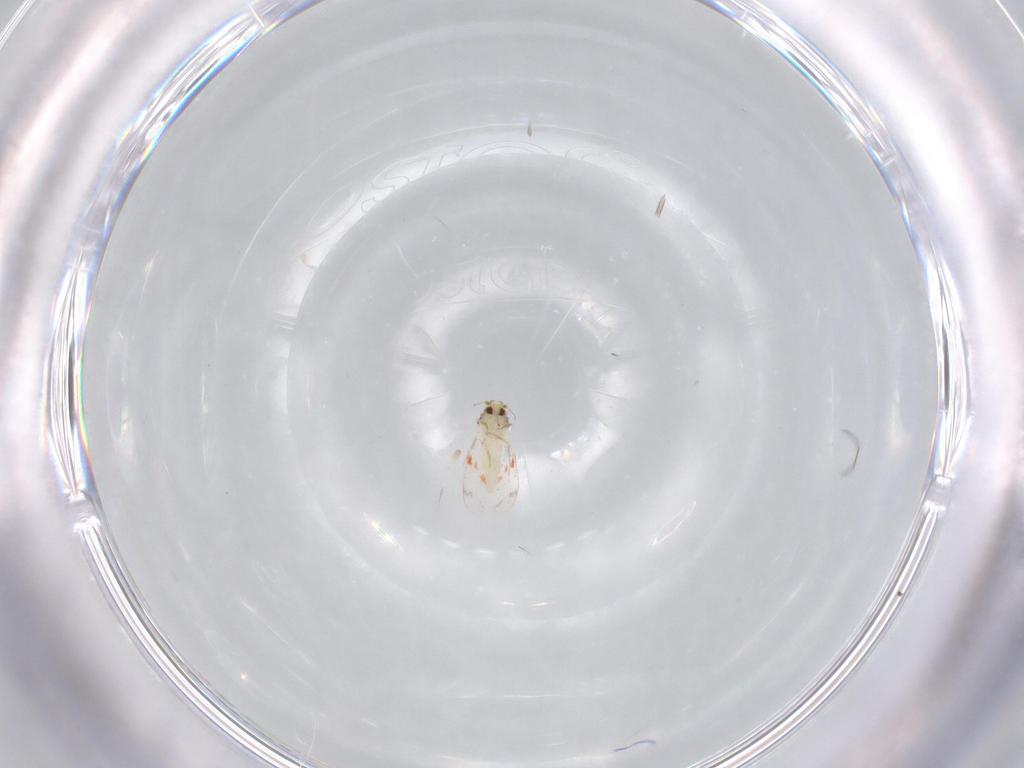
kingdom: Animalia
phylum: Arthropoda
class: Insecta
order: Hemiptera
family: Aleyrodidae
